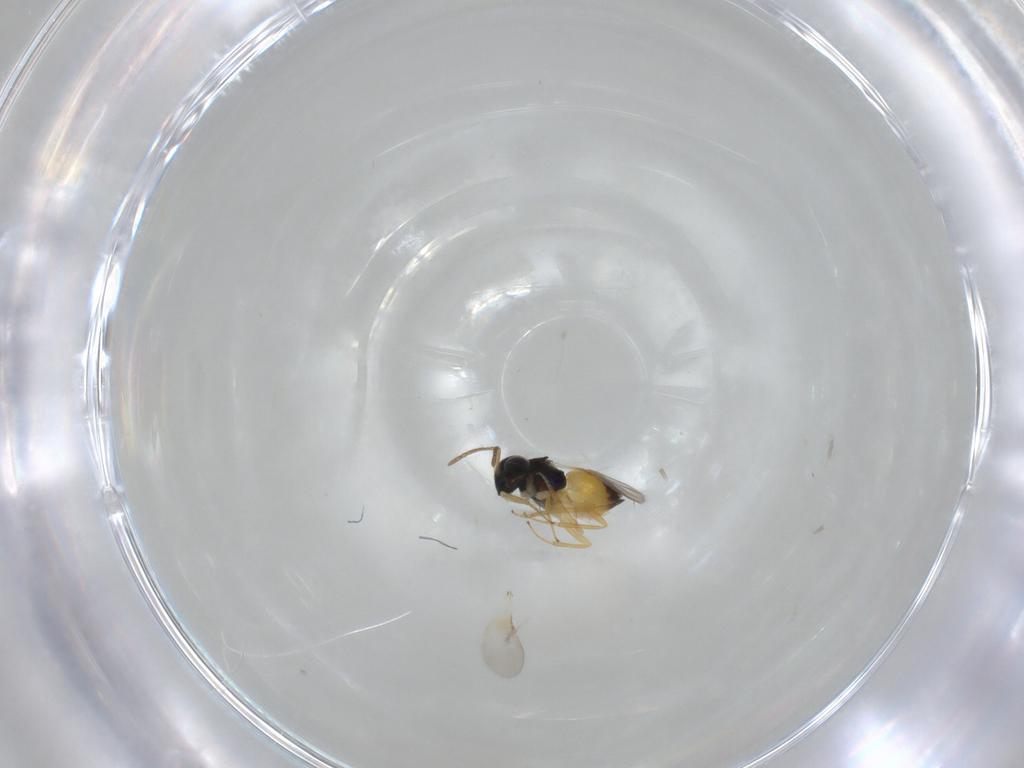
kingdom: Animalia
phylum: Arthropoda
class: Insecta
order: Hymenoptera
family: Encyrtidae
